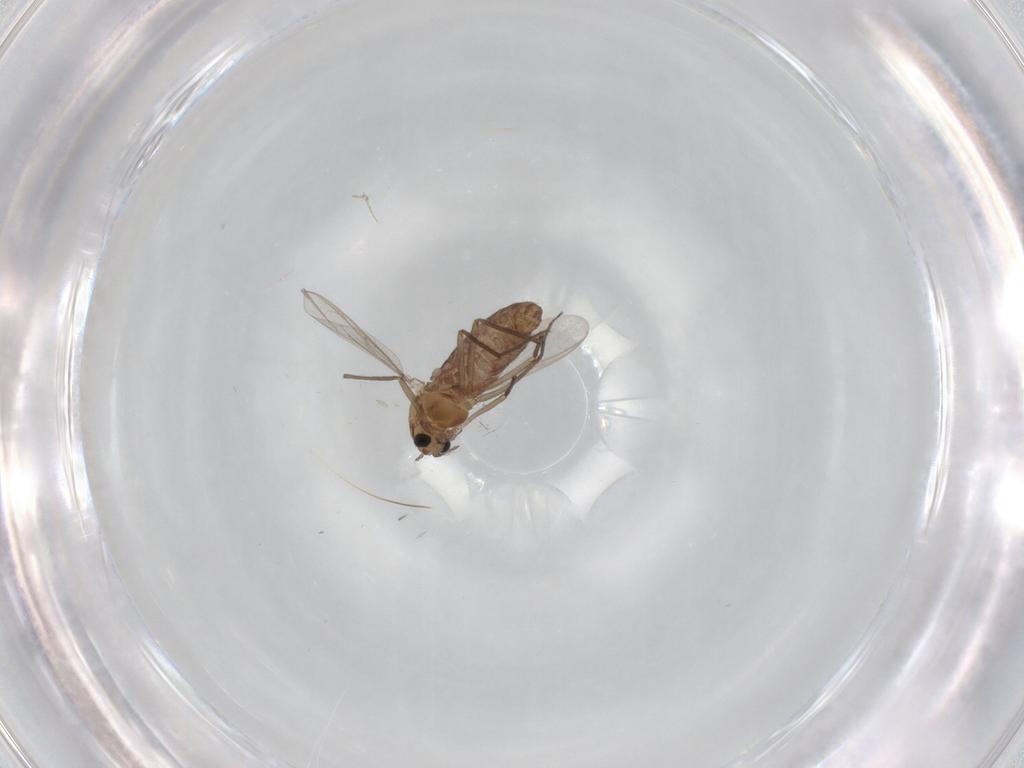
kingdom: Animalia
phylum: Arthropoda
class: Insecta
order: Diptera
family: Chironomidae
